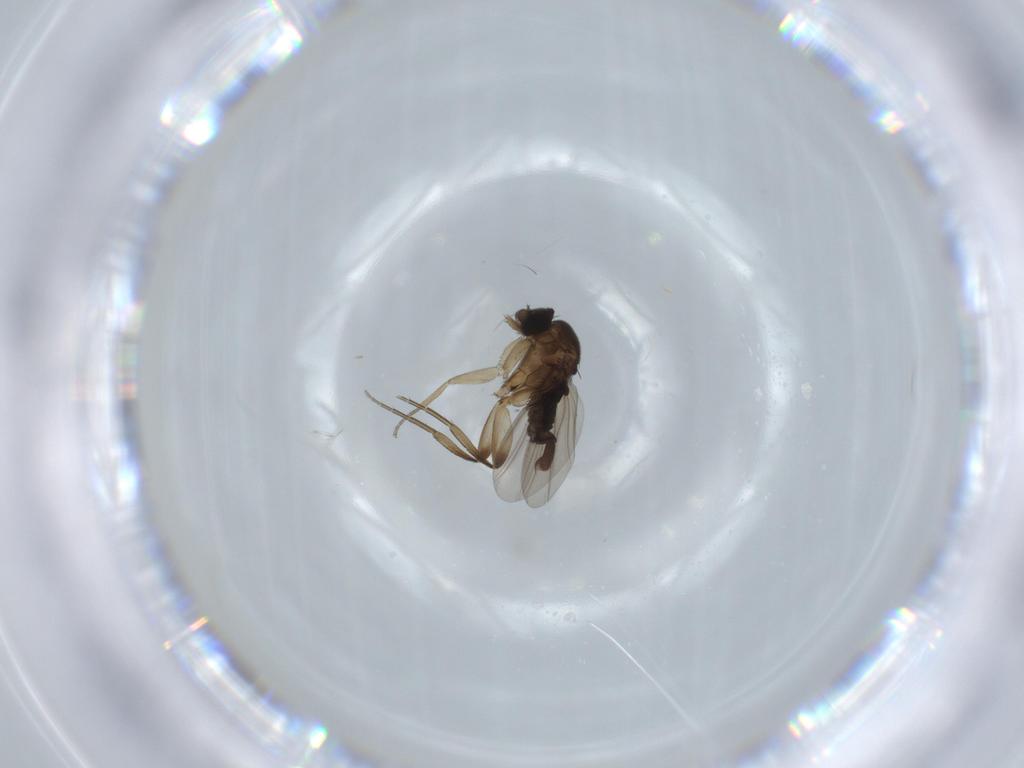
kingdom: Animalia
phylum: Arthropoda
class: Insecta
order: Diptera
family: Phoridae
